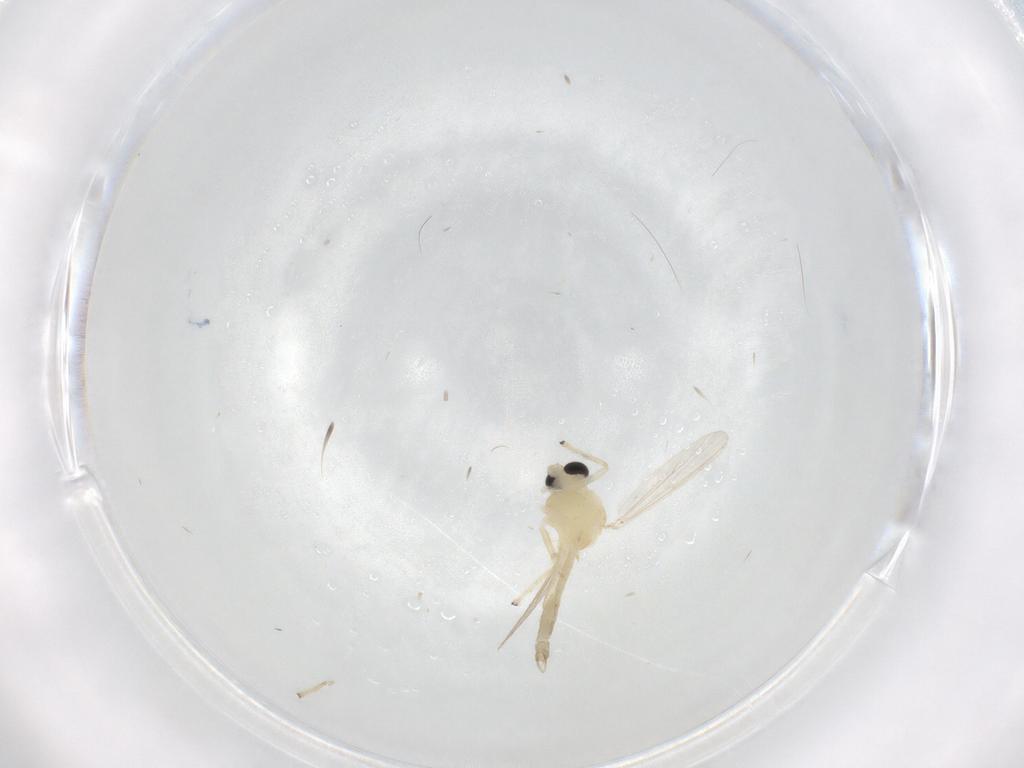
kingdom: Animalia
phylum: Arthropoda
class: Insecta
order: Diptera
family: Chironomidae
